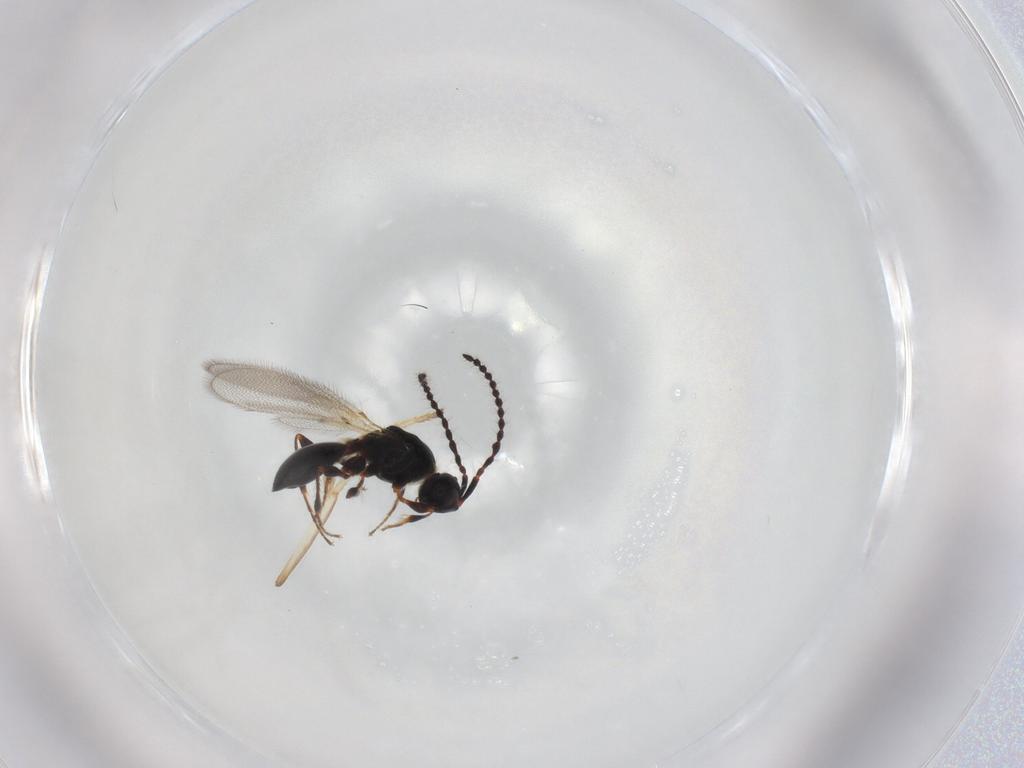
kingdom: Animalia
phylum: Arthropoda
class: Insecta
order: Hymenoptera
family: Diapriidae
